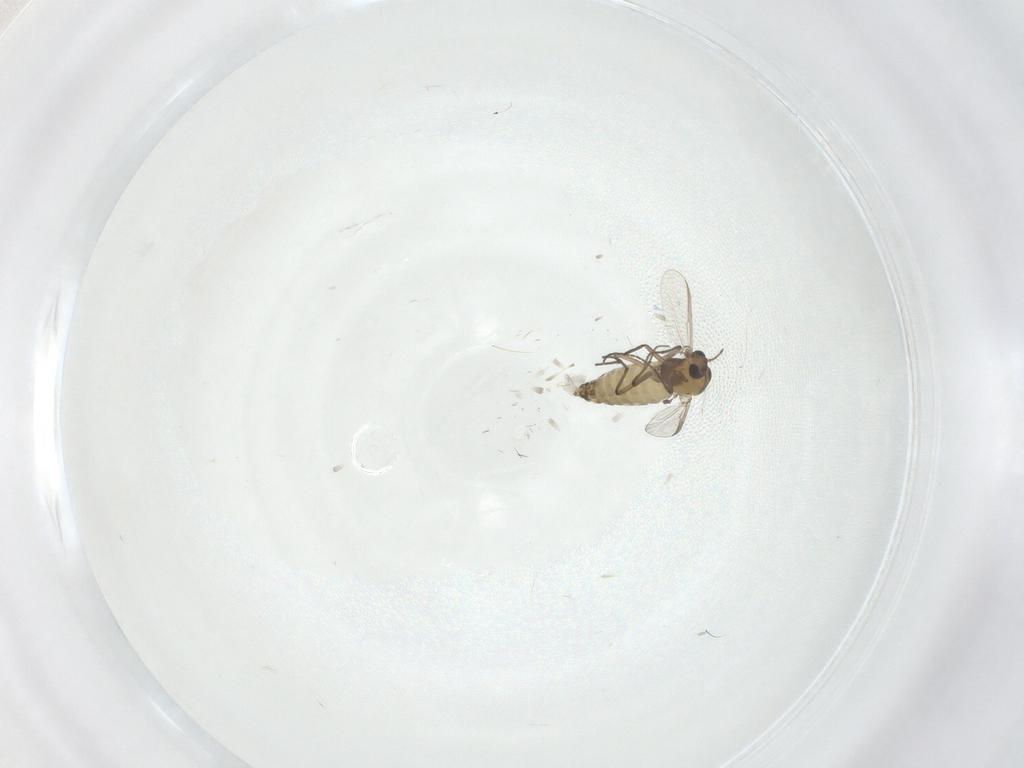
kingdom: Animalia
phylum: Arthropoda
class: Insecta
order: Diptera
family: Chironomidae
